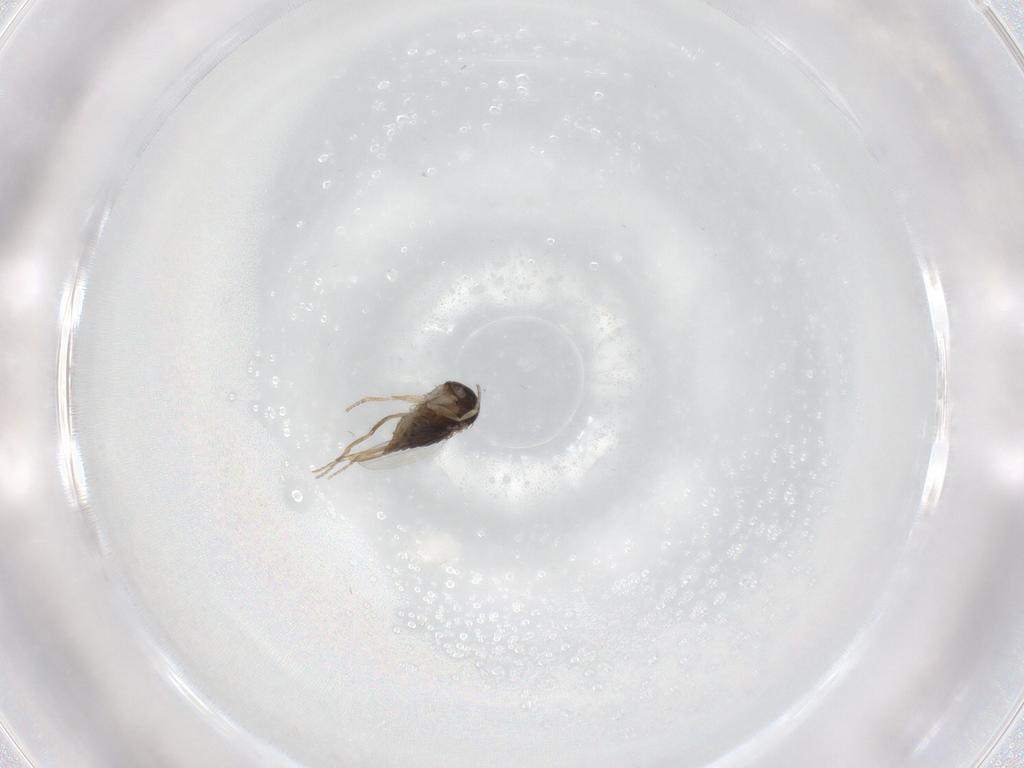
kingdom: Animalia
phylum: Arthropoda
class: Insecta
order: Diptera
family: Phoridae
